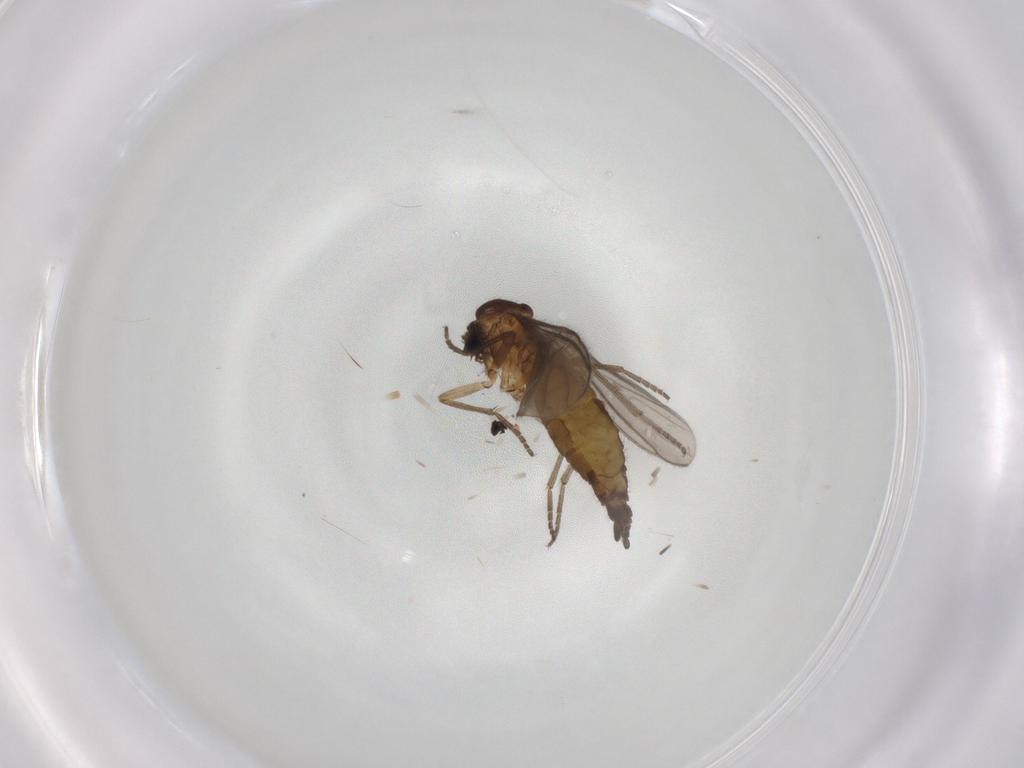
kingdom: Animalia
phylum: Arthropoda
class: Insecta
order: Diptera
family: Sciaridae
